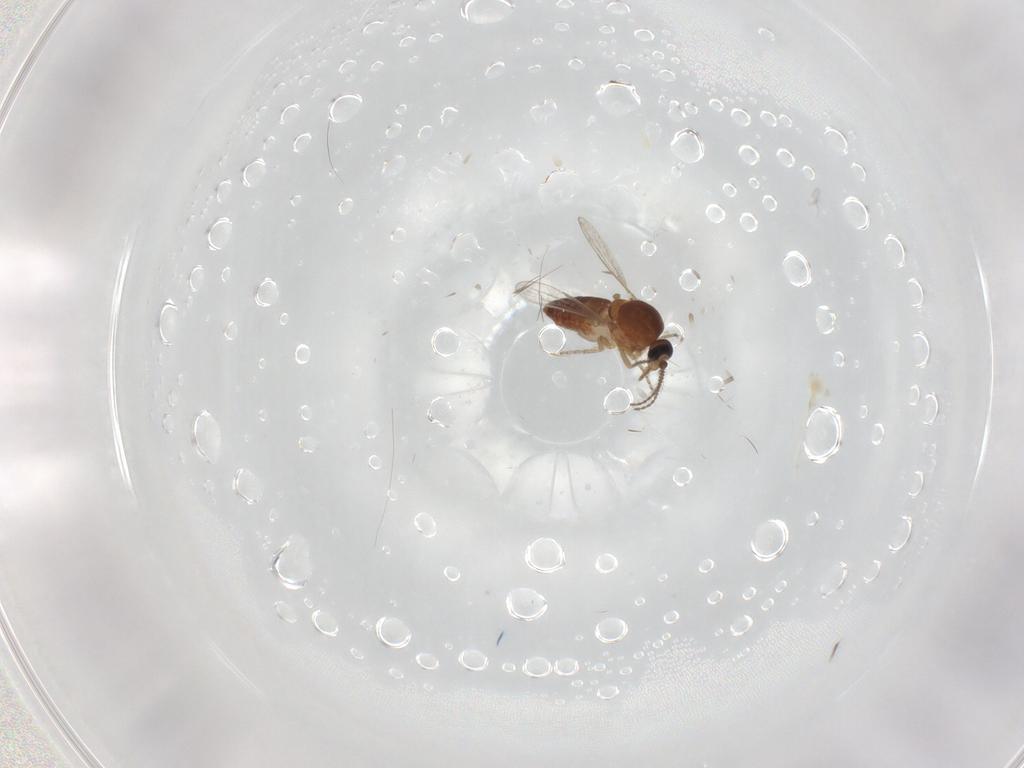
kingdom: Animalia
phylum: Arthropoda
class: Insecta
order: Diptera
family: Ceratopogonidae
